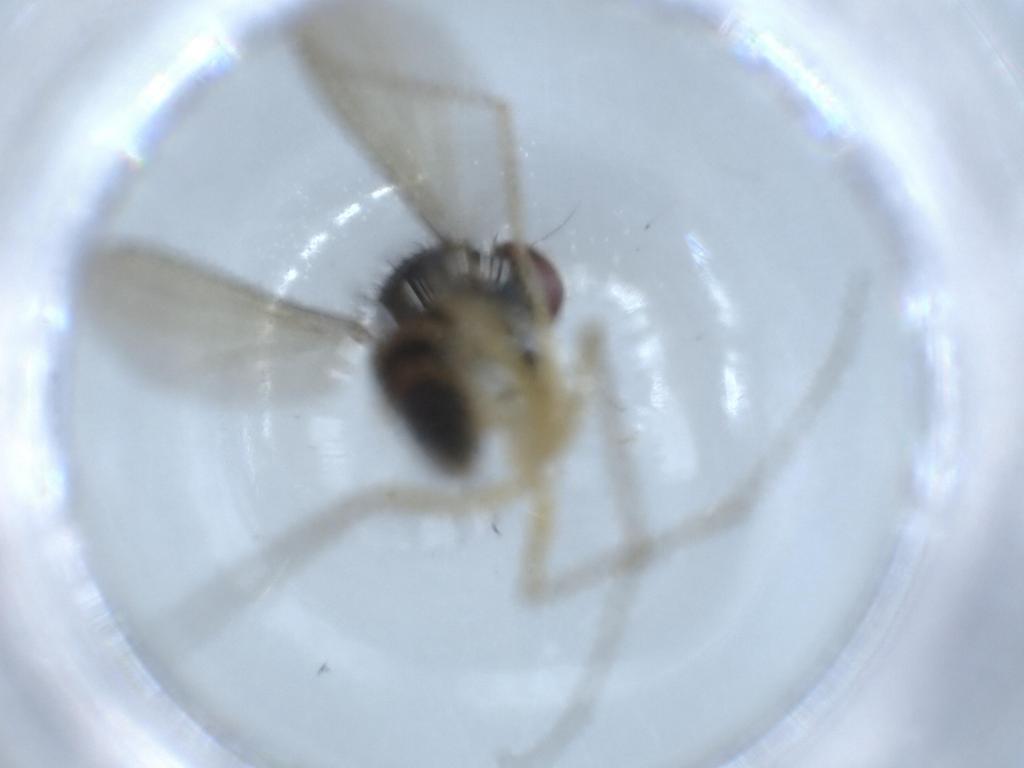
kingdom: Animalia
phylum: Arthropoda
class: Insecta
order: Diptera
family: Dolichopodidae
